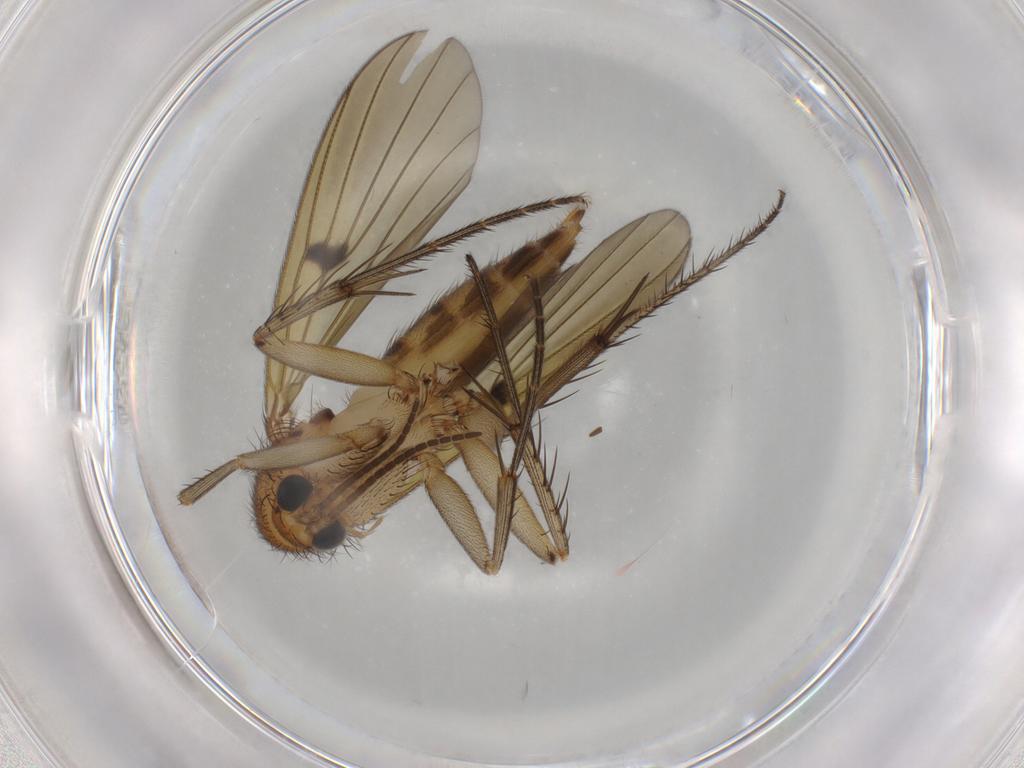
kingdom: Animalia
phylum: Arthropoda
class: Insecta
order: Diptera
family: Mycetophilidae
